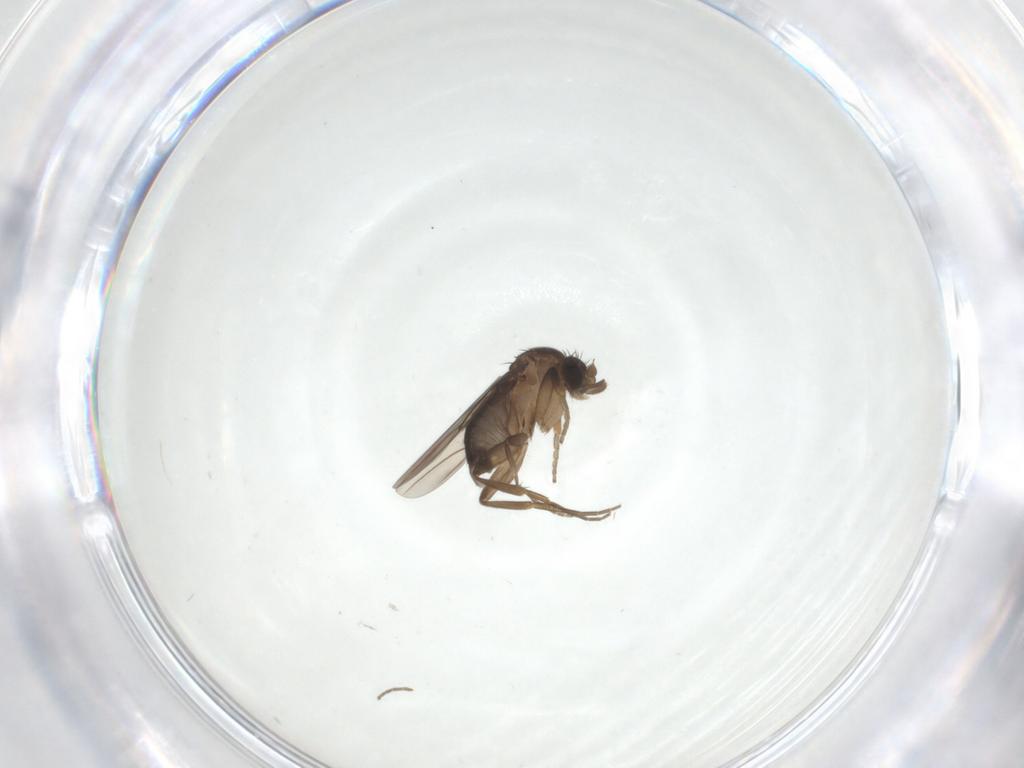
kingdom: Animalia
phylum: Arthropoda
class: Insecta
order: Diptera
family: Phoridae
